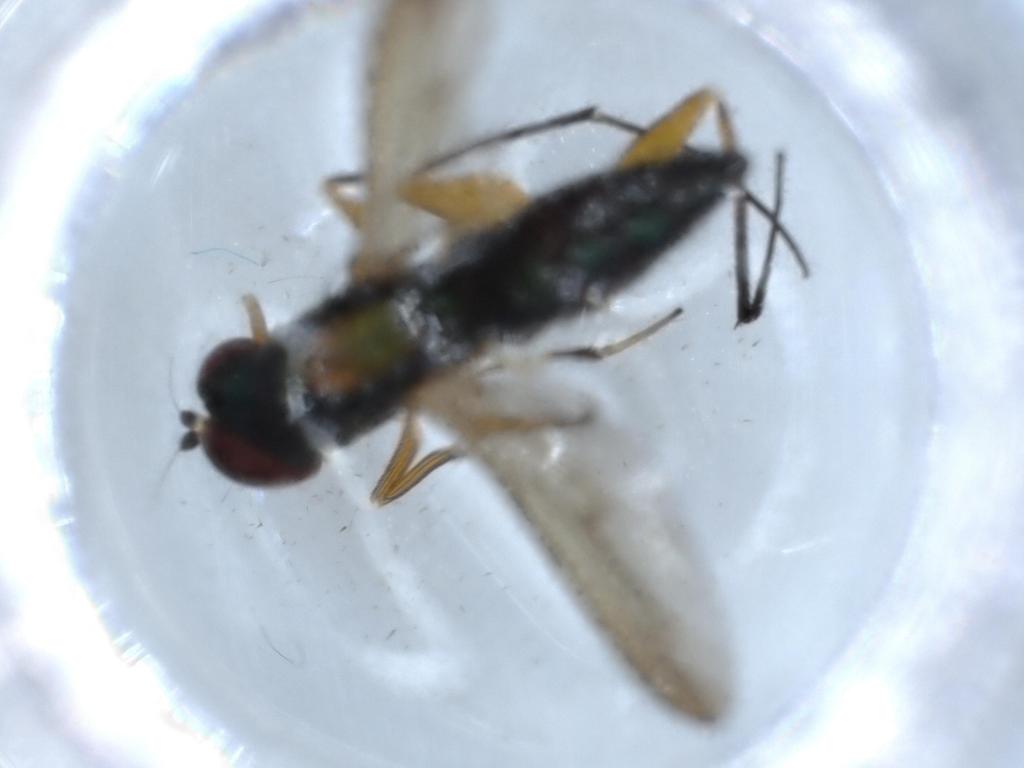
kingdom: Animalia
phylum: Arthropoda
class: Insecta
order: Diptera
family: Dolichopodidae
